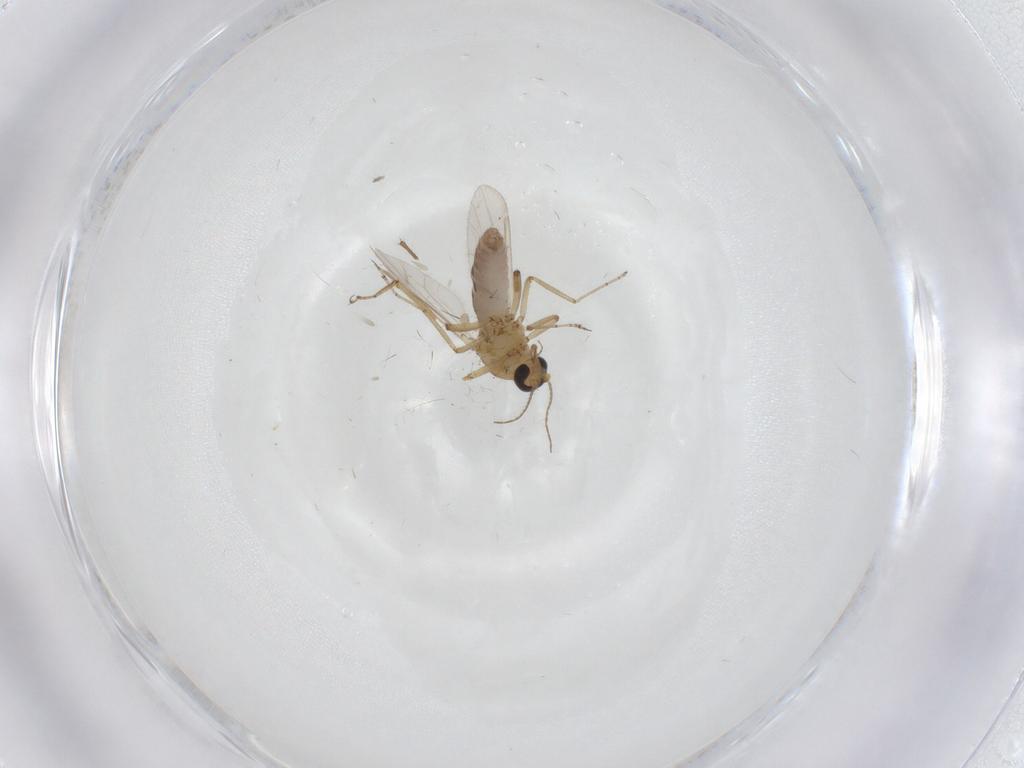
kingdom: Animalia
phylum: Arthropoda
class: Insecta
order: Diptera
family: Ceratopogonidae
